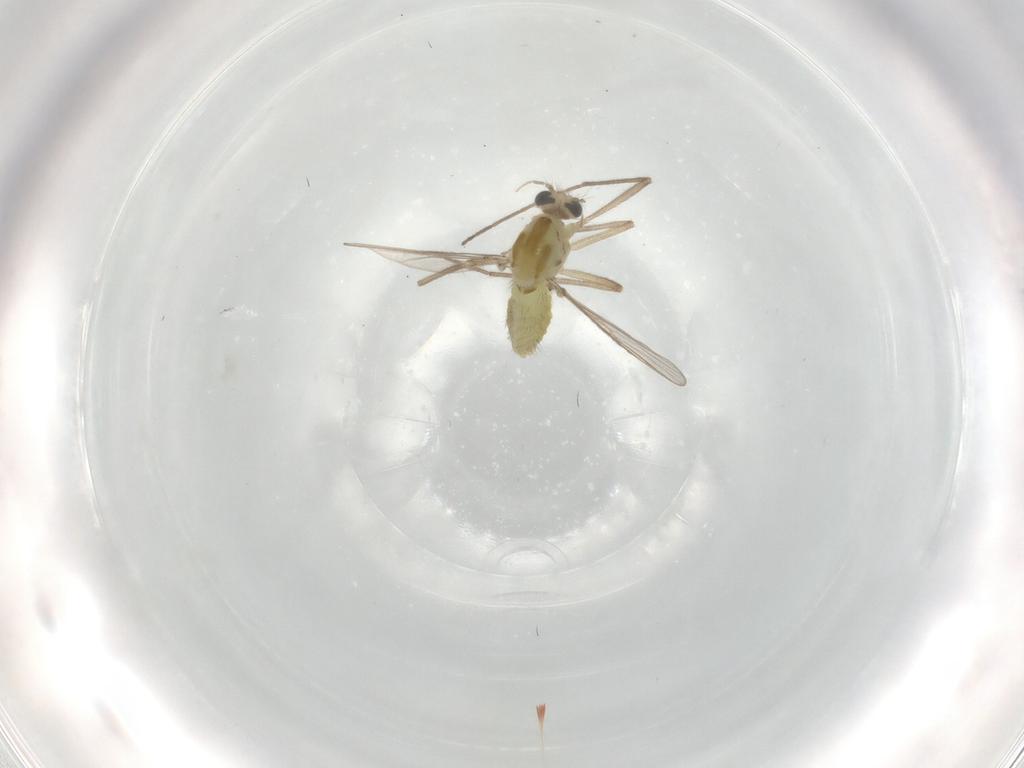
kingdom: Animalia
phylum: Arthropoda
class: Insecta
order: Diptera
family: Chironomidae
